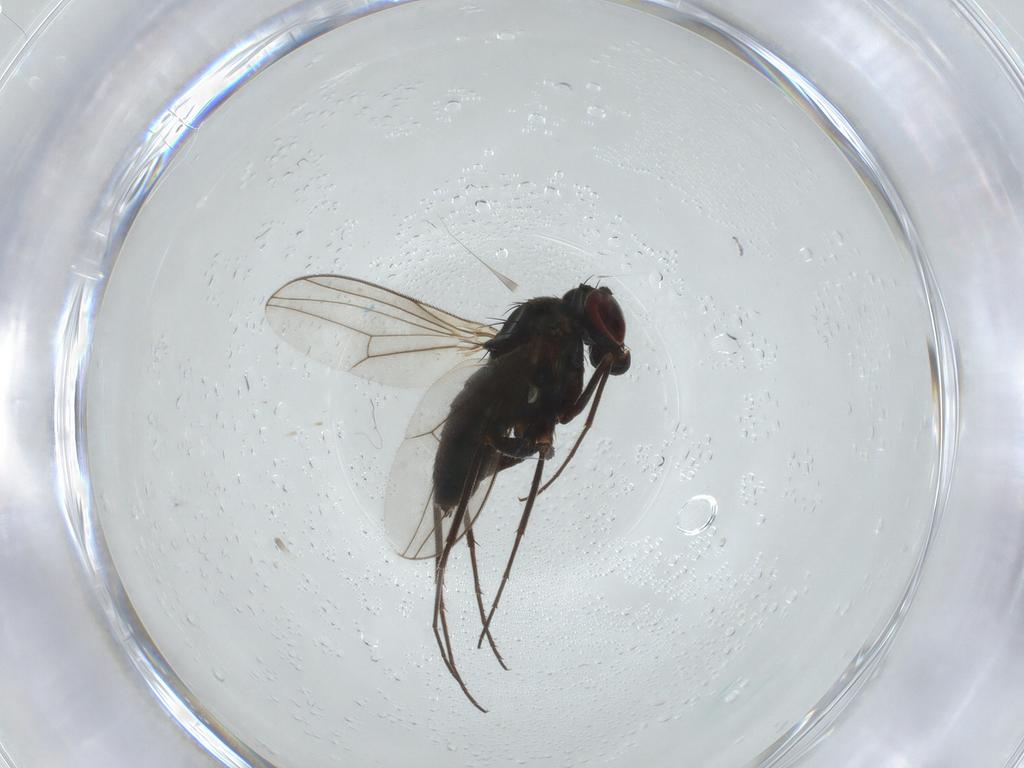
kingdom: Animalia
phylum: Arthropoda
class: Insecta
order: Diptera
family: Dolichopodidae
